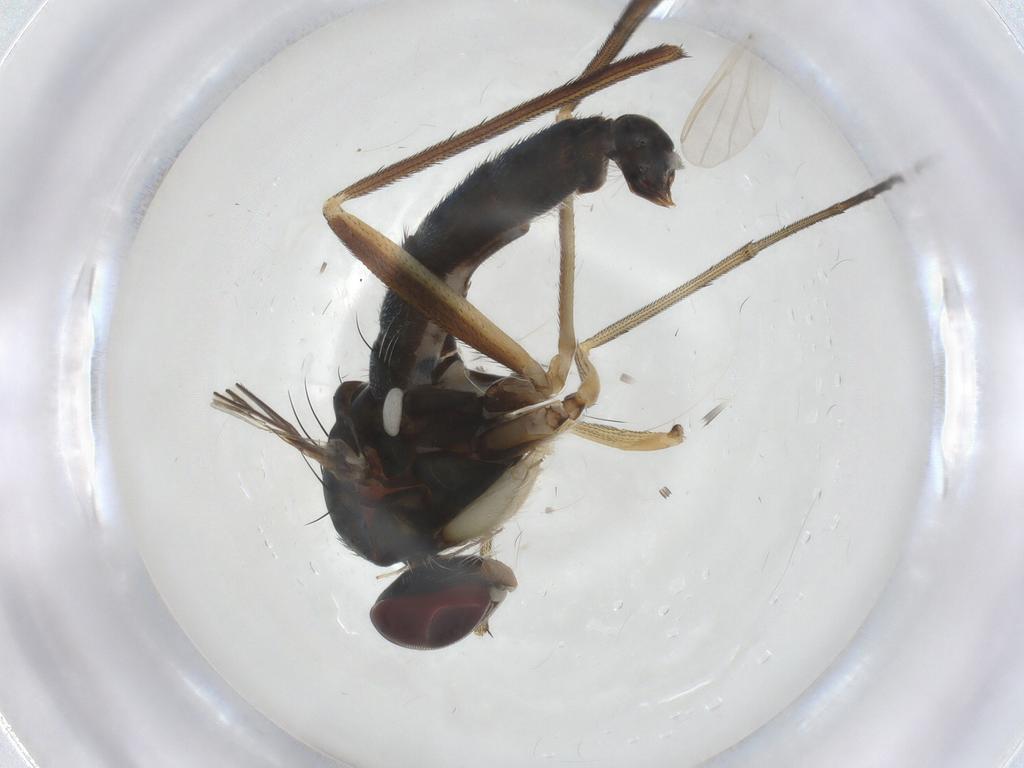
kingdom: Animalia
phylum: Arthropoda
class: Insecta
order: Diptera
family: Dolichopodidae
